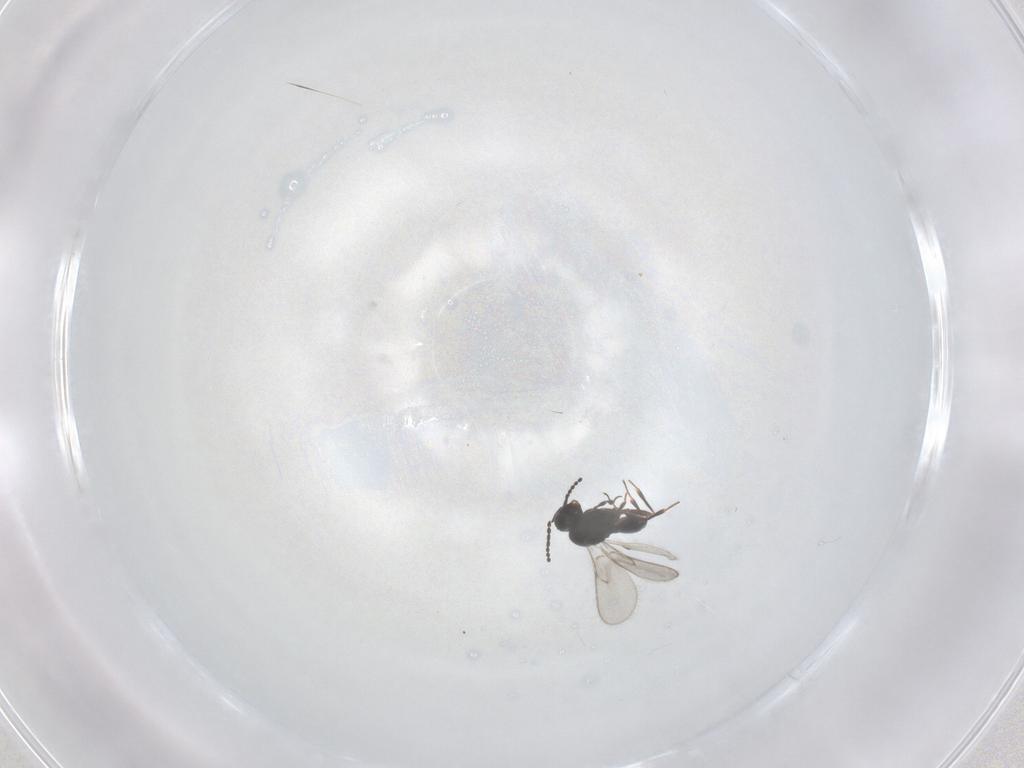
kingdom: Animalia
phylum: Arthropoda
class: Insecta
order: Hymenoptera
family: Scelionidae
